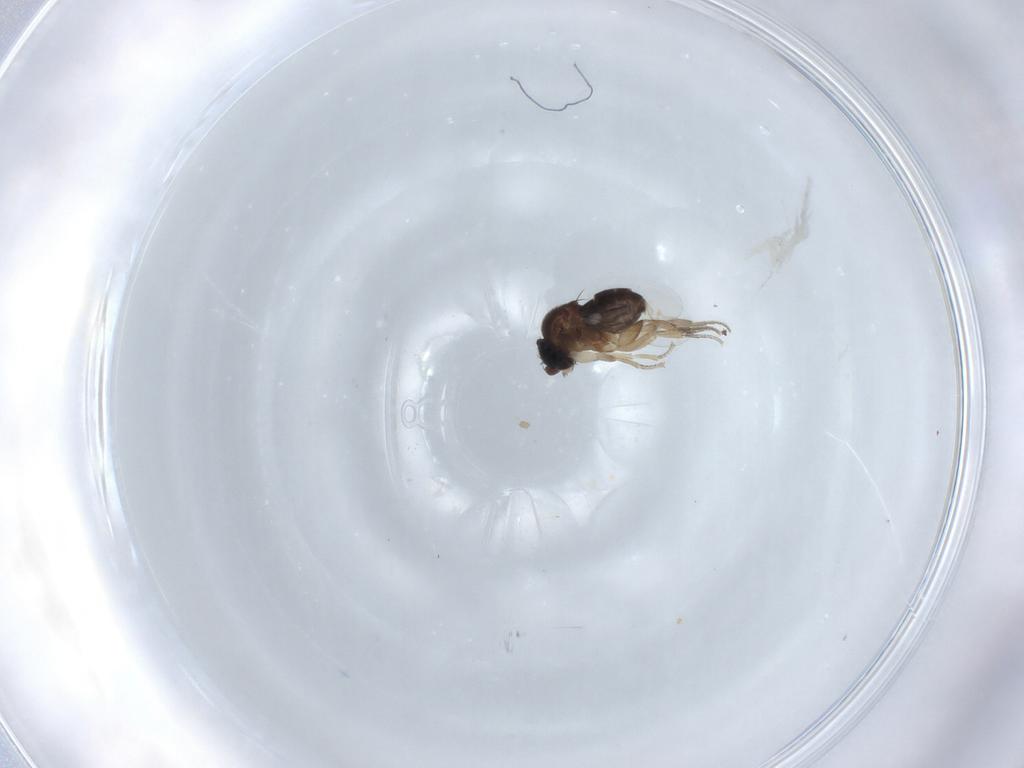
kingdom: Animalia
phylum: Arthropoda
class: Insecta
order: Diptera
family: Phoridae
